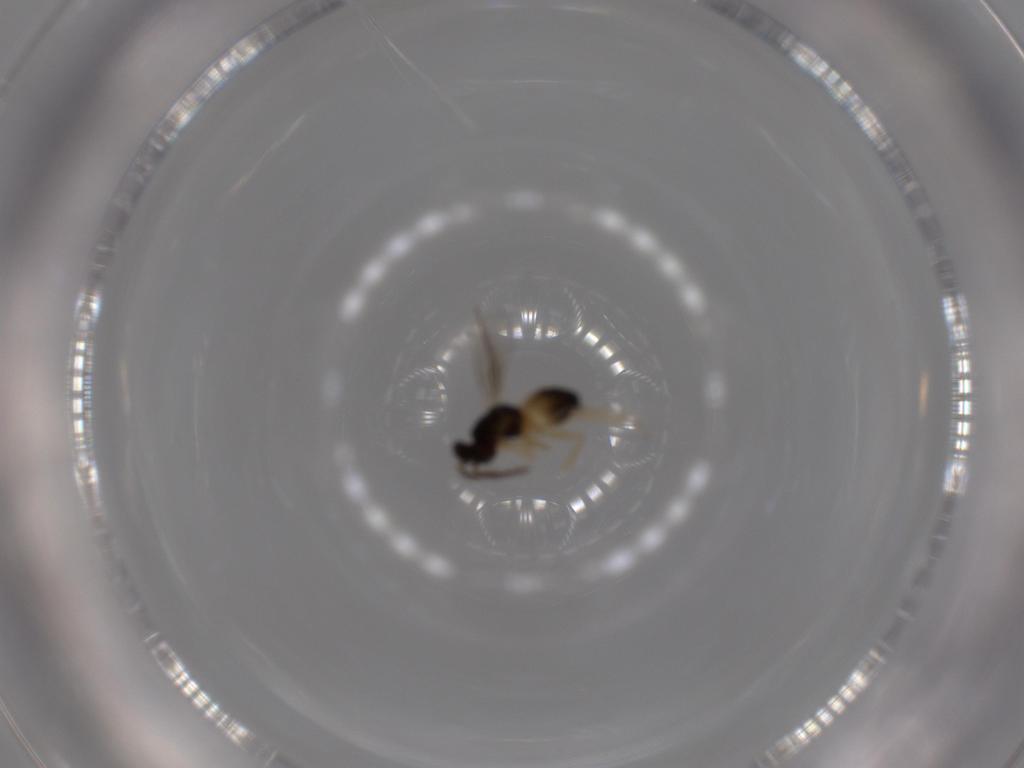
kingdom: Animalia
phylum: Arthropoda
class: Insecta
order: Hymenoptera
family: Eulophidae
